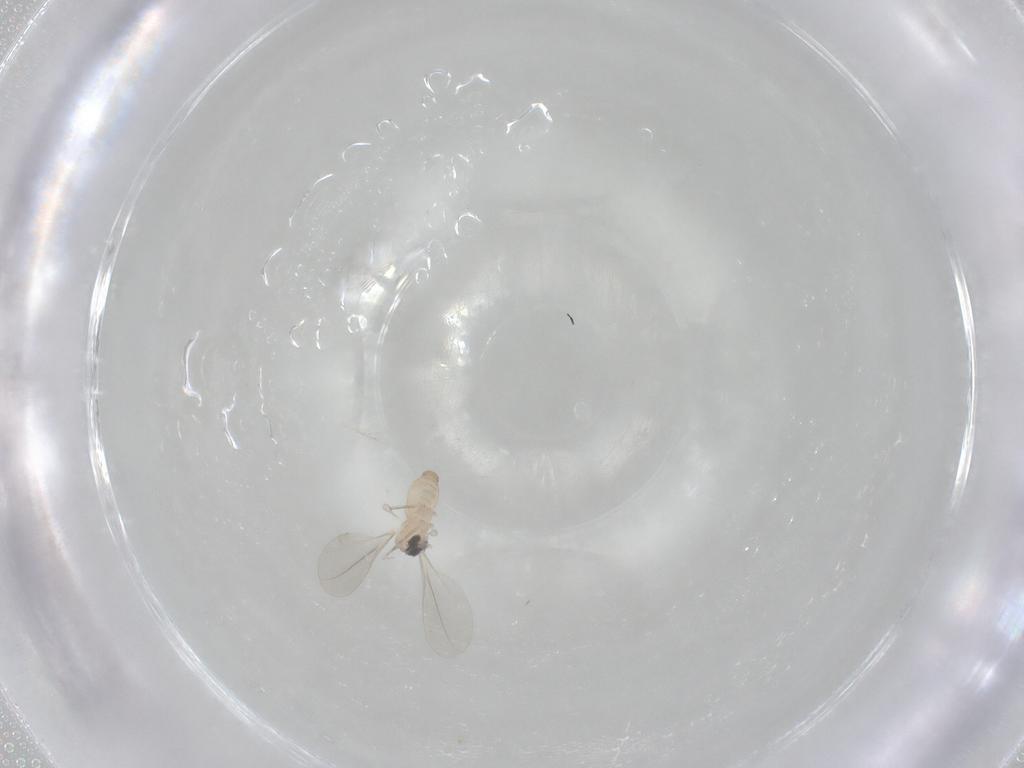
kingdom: Animalia
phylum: Arthropoda
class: Insecta
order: Diptera
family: Cecidomyiidae
